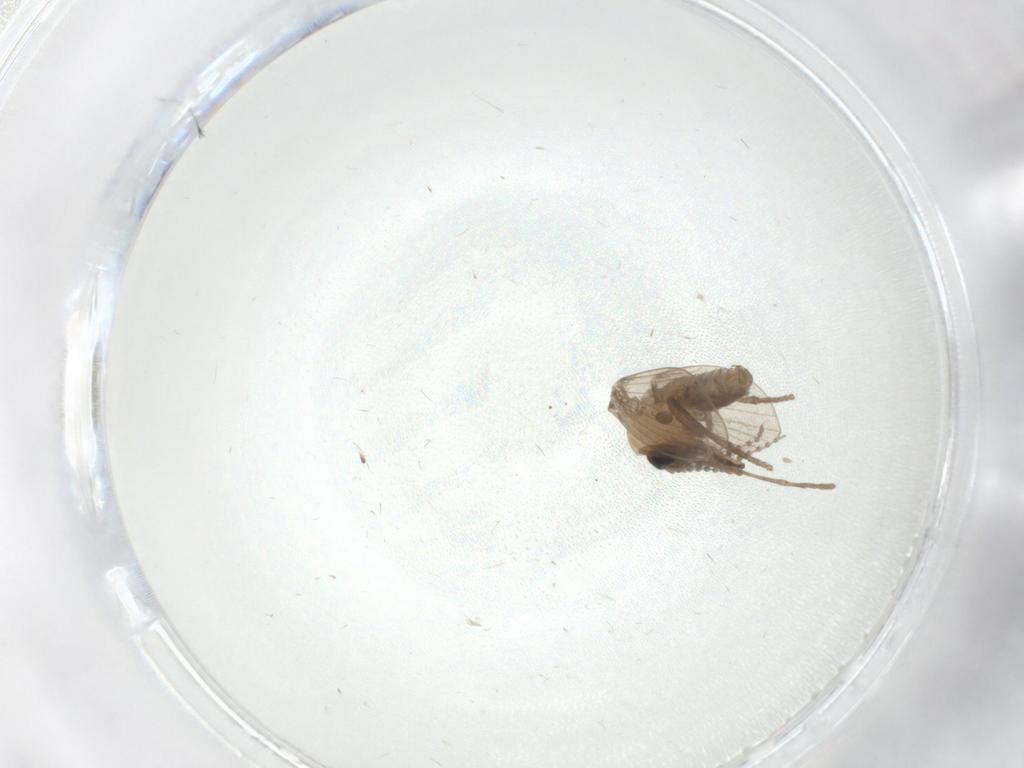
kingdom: Animalia
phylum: Arthropoda
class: Insecta
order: Diptera
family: Psychodidae
